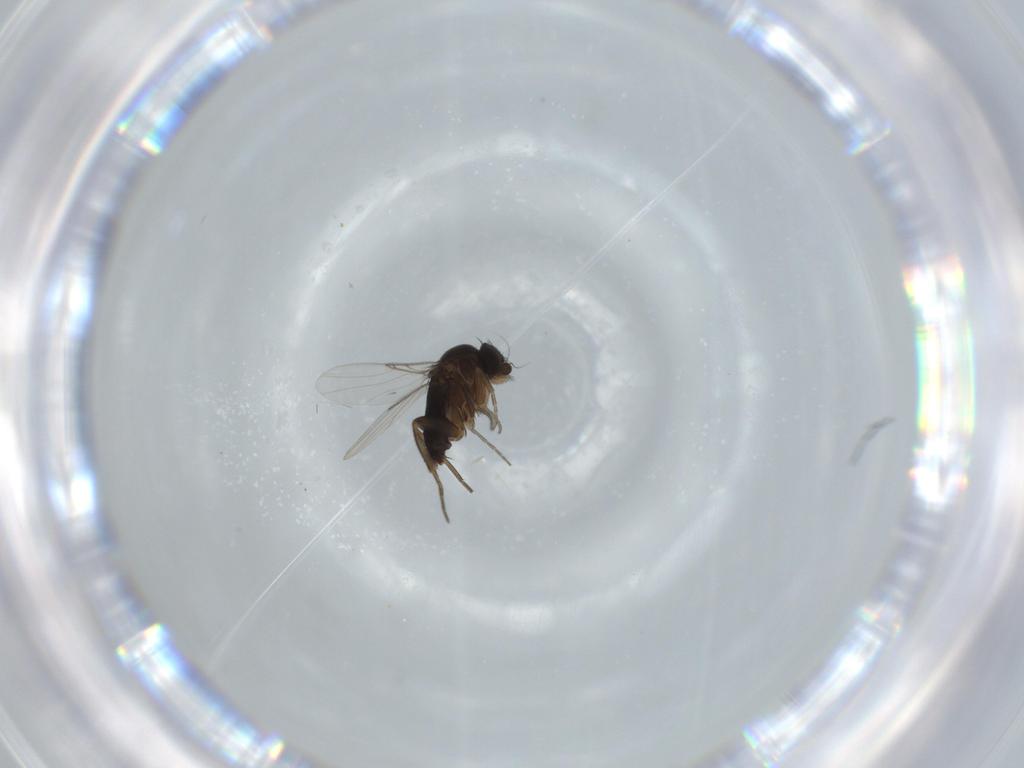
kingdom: Animalia
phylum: Arthropoda
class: Insecta
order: Diptera
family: Phoridae
